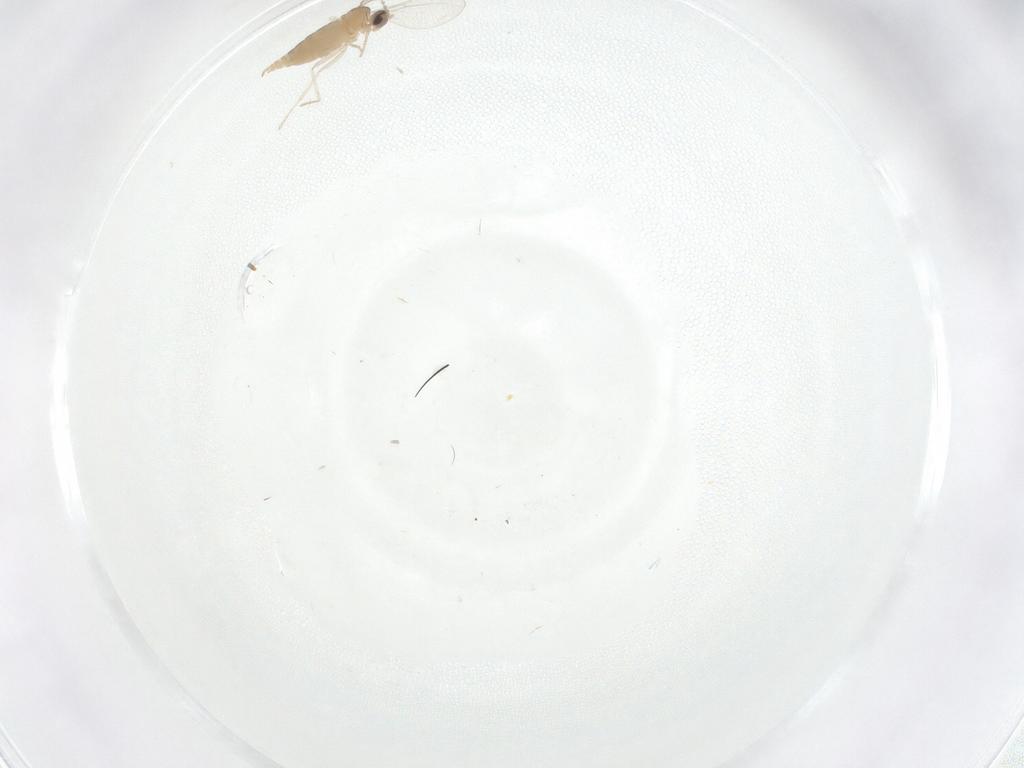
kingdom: Animalia
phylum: Arthropoda
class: Insecta
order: Diptera
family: Cecidomyiidae
